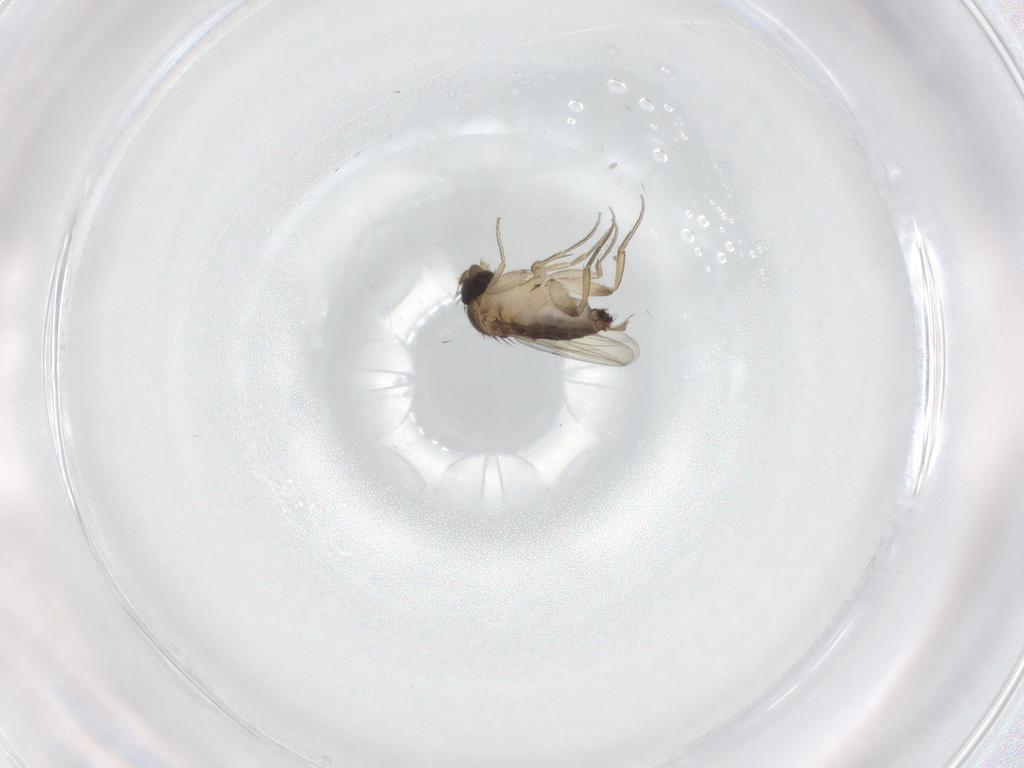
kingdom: Animalia
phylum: Arthropoda
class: Insecta
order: Diptera
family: Phoridae
